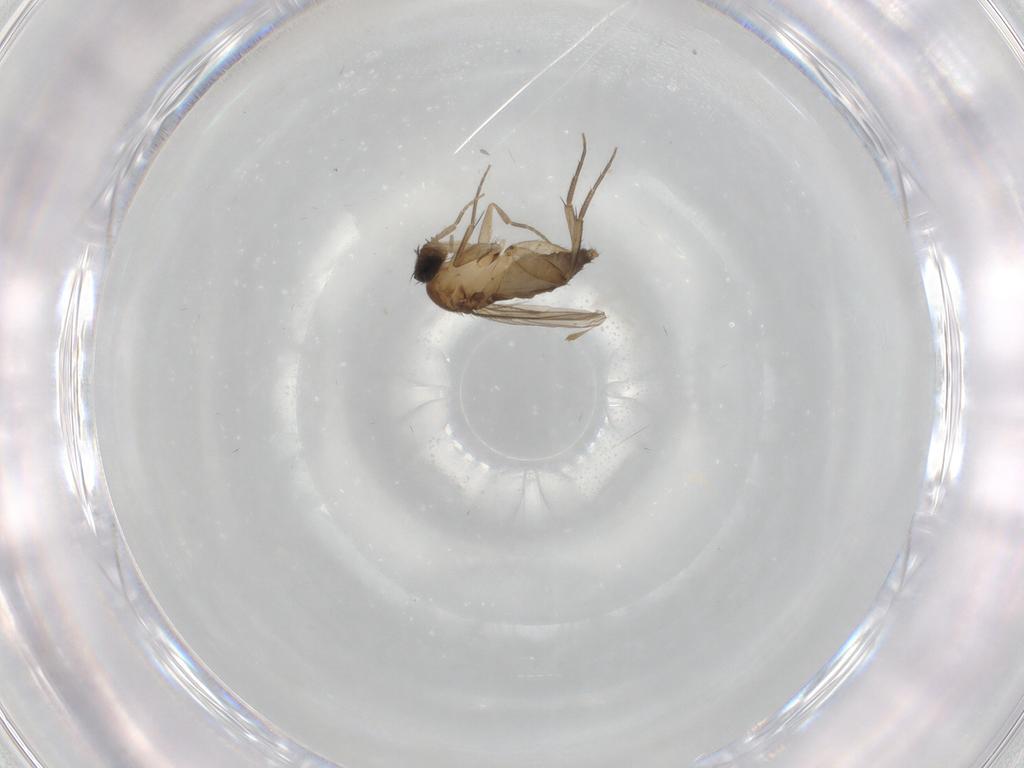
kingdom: Animalia
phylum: Arthropoda
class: Insecta
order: Diptera
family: Phoridae
